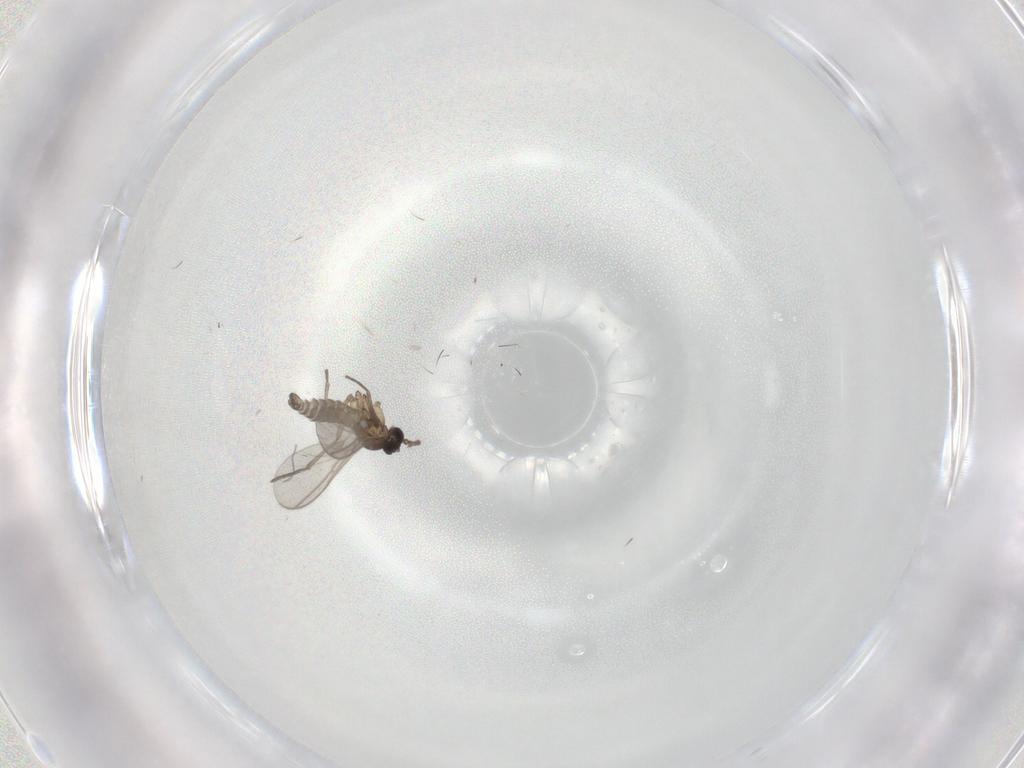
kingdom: Animalia
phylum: Arthropoda
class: Insecta
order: Diptera
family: Sciaridae
